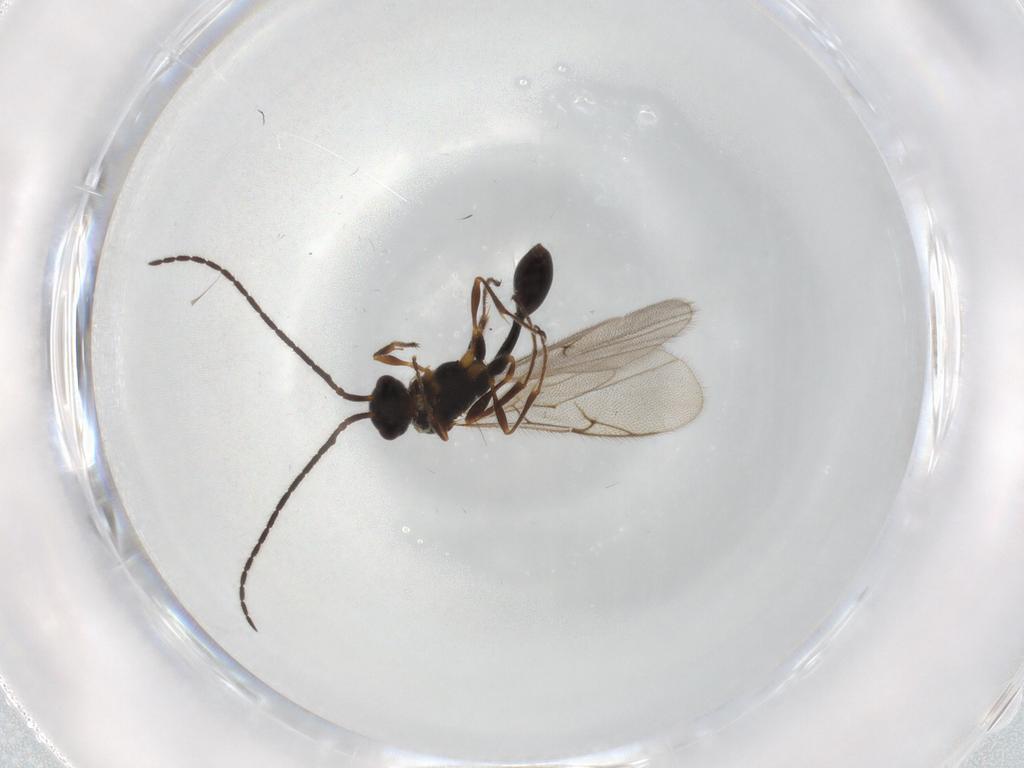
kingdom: Animalia
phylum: Arthropoda
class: Insecta
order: Hymenoptera
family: Diapriidae
